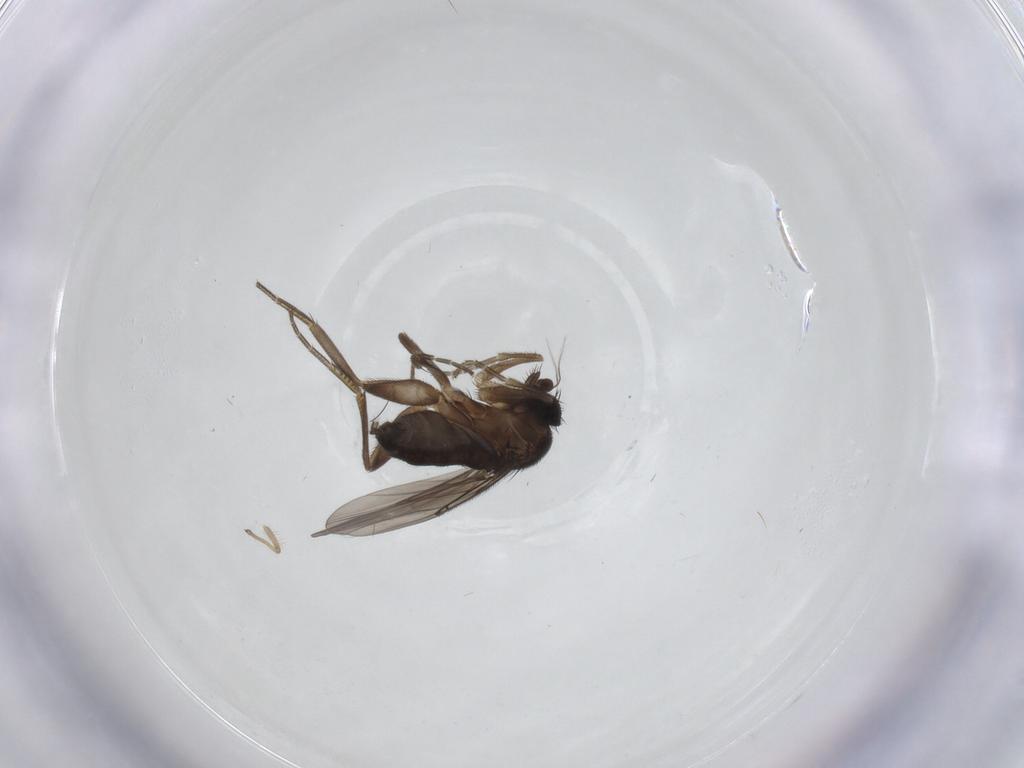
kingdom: Animalia
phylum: Arthropoda
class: Insecta
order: Diptera
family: Phoridae
